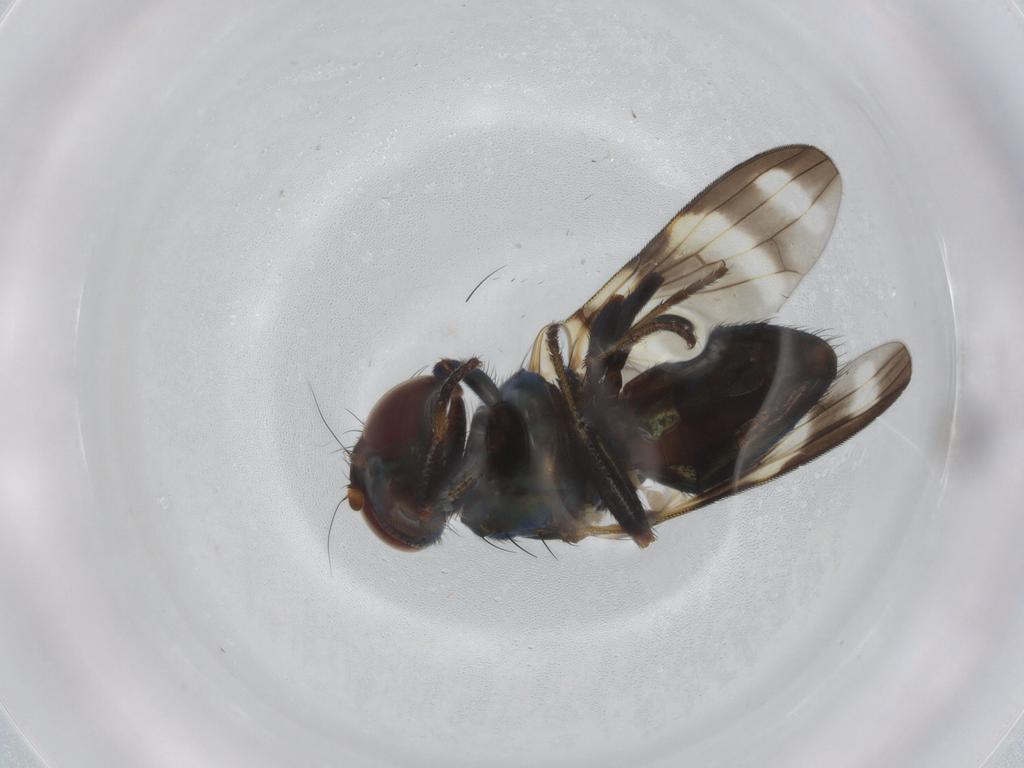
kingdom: Animalia
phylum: Arthropoda
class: Insecta
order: Diptera
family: Ulidiidae
